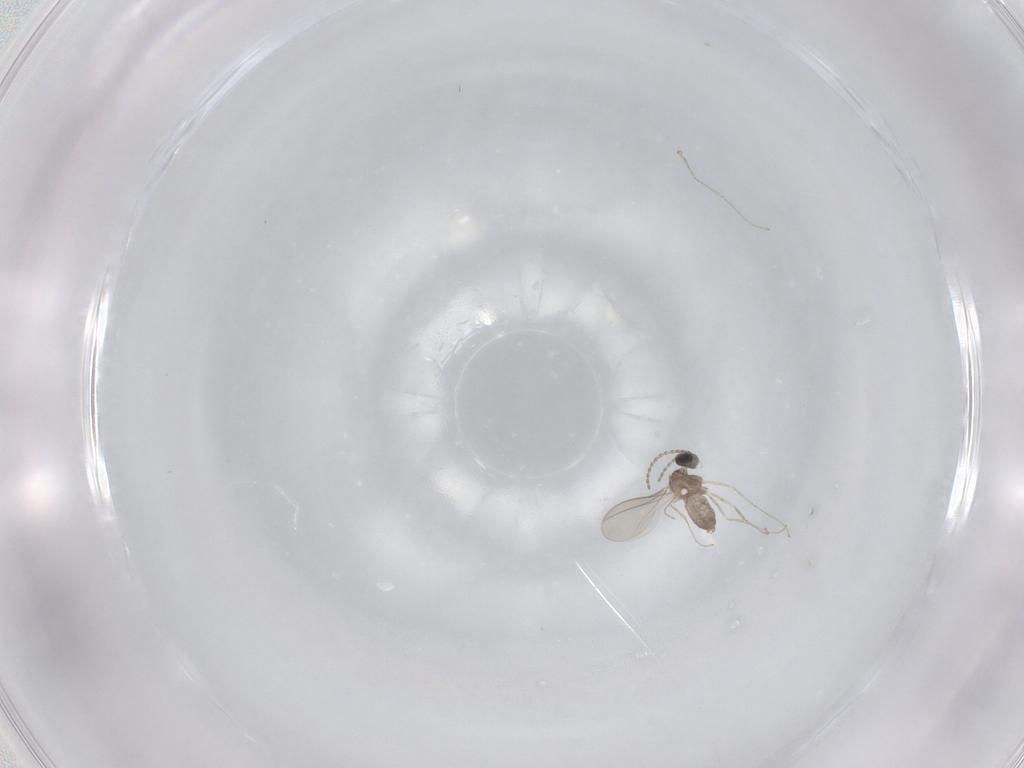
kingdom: Animalia
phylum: Arthropoda
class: Insecta
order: Diptera
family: Cecidomyiidae
